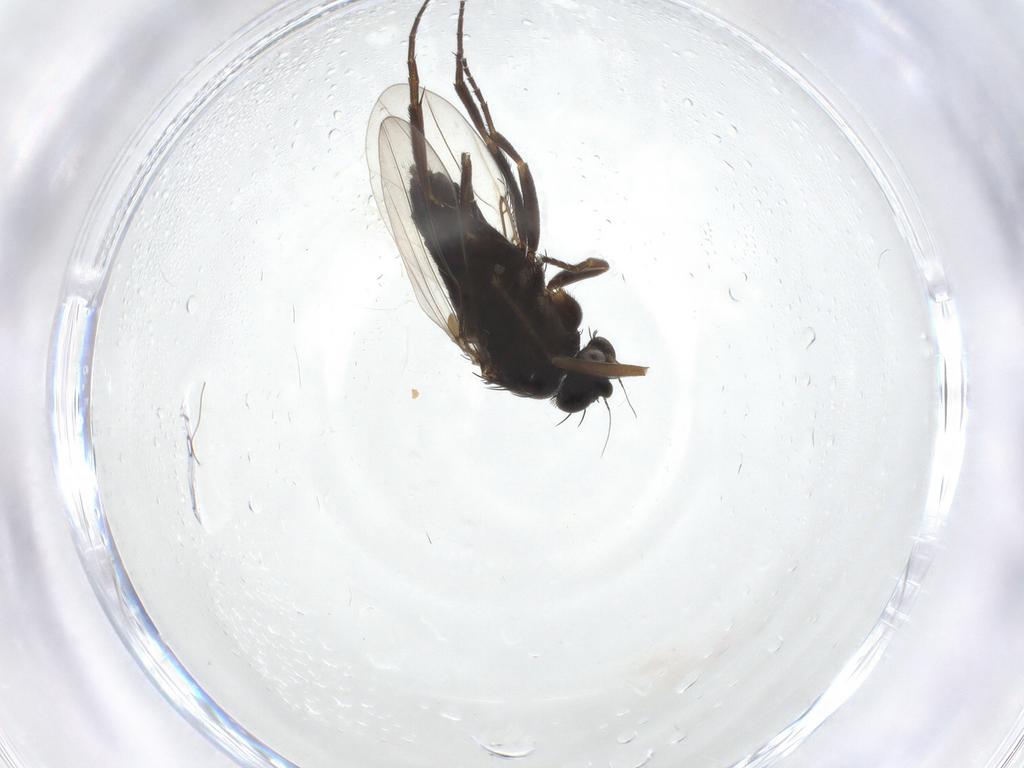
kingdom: Animalia
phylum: Arthropoda
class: Insecta
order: Diptera
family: Phoridae
